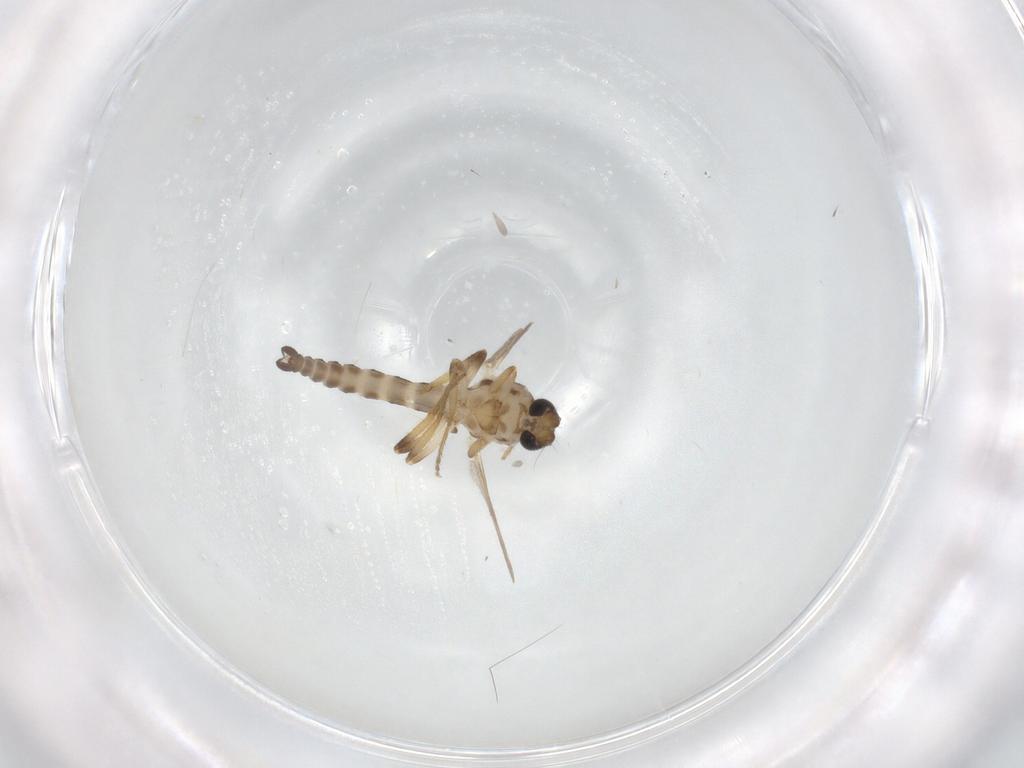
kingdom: Animalia
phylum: Arthropoda
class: Insecta
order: Diptera
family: Ceratopogonidae
